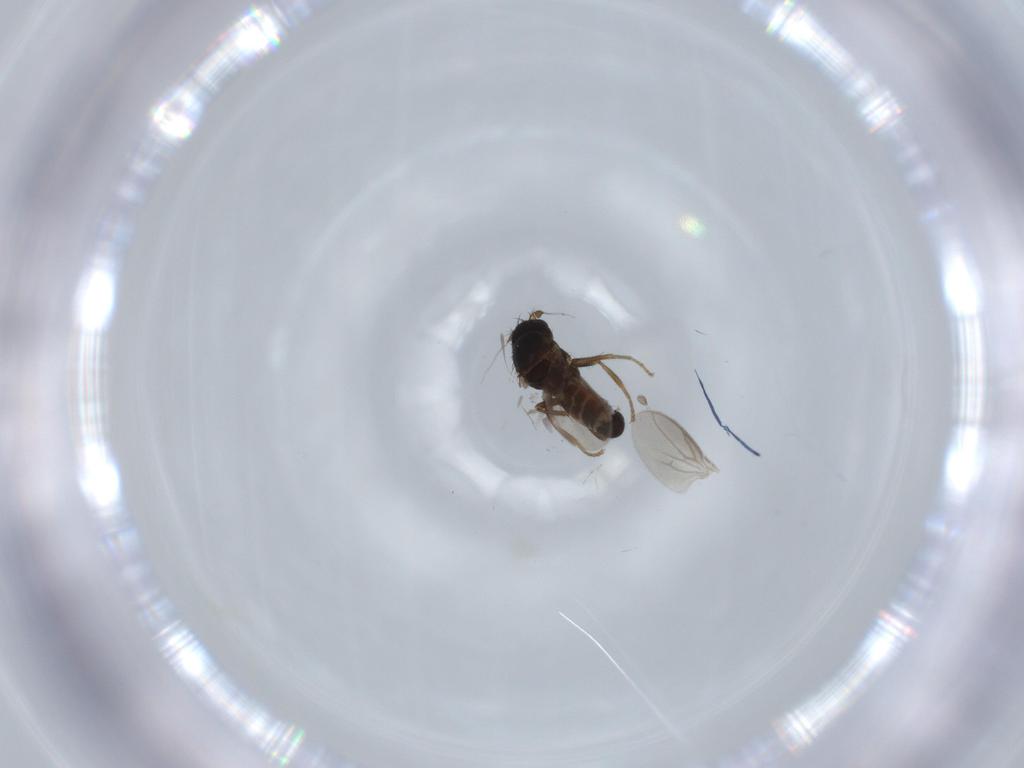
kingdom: Animalia
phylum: Arthropoda
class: Insecta
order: Diptera
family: Sphaeroceridae
